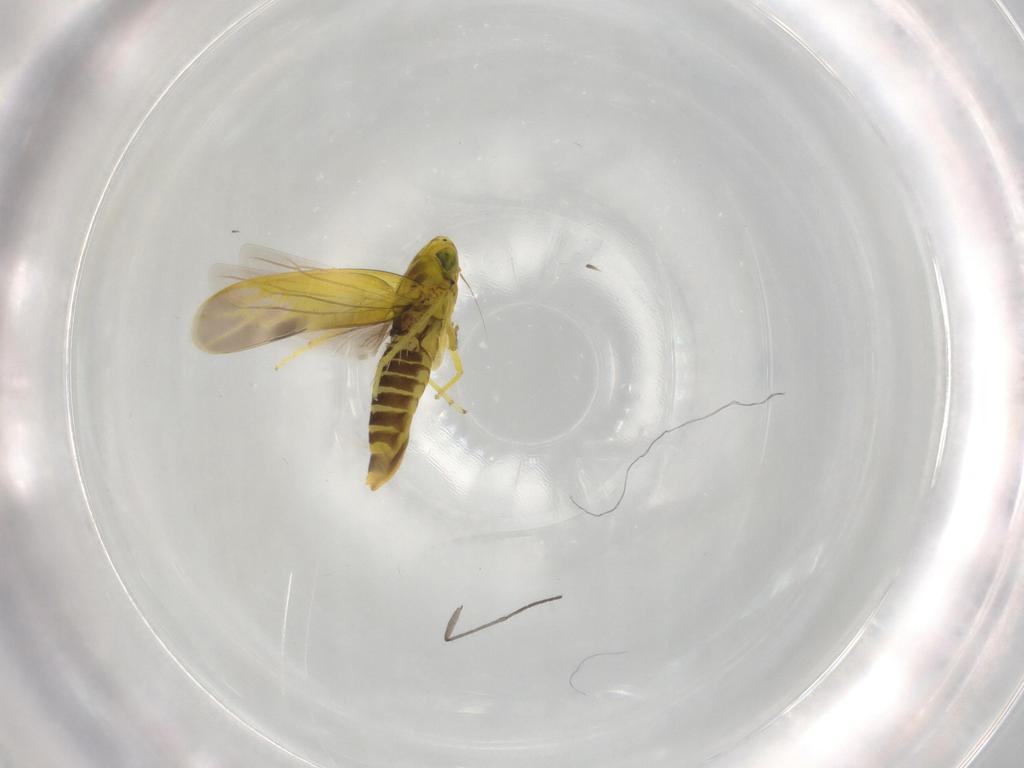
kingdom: Animalia
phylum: Arthropoda
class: Insecta
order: Hemiptera
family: Cicadellidae
